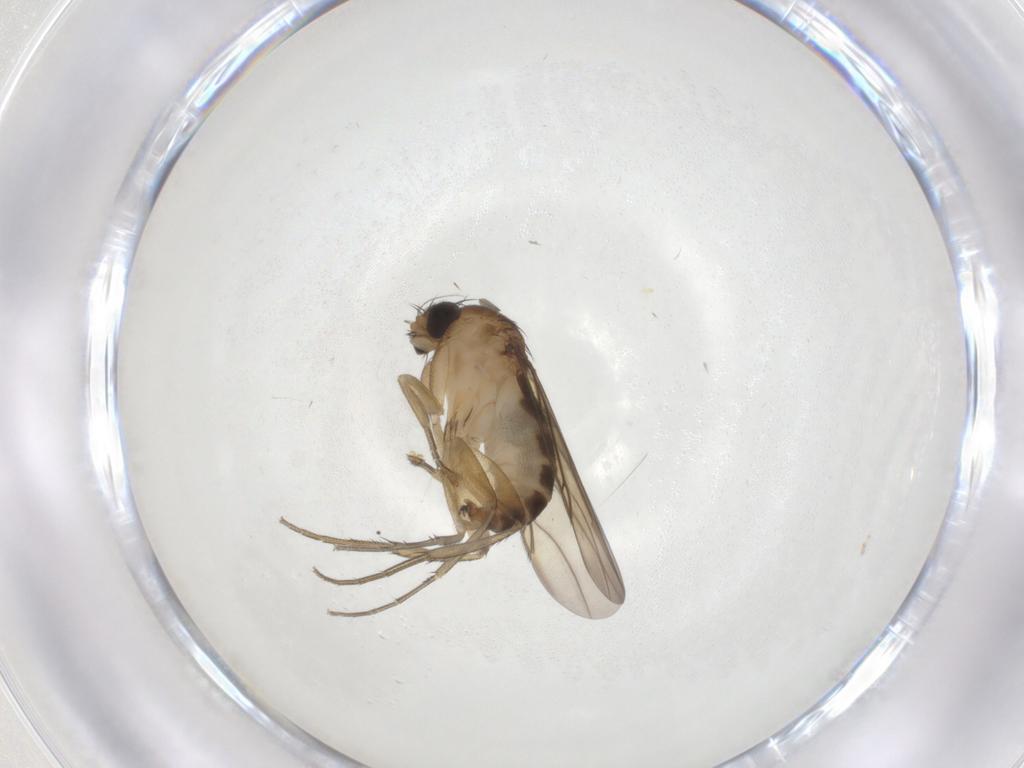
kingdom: Animalia
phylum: Arthropoda
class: Insecta
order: Diptera
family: Phoridae
